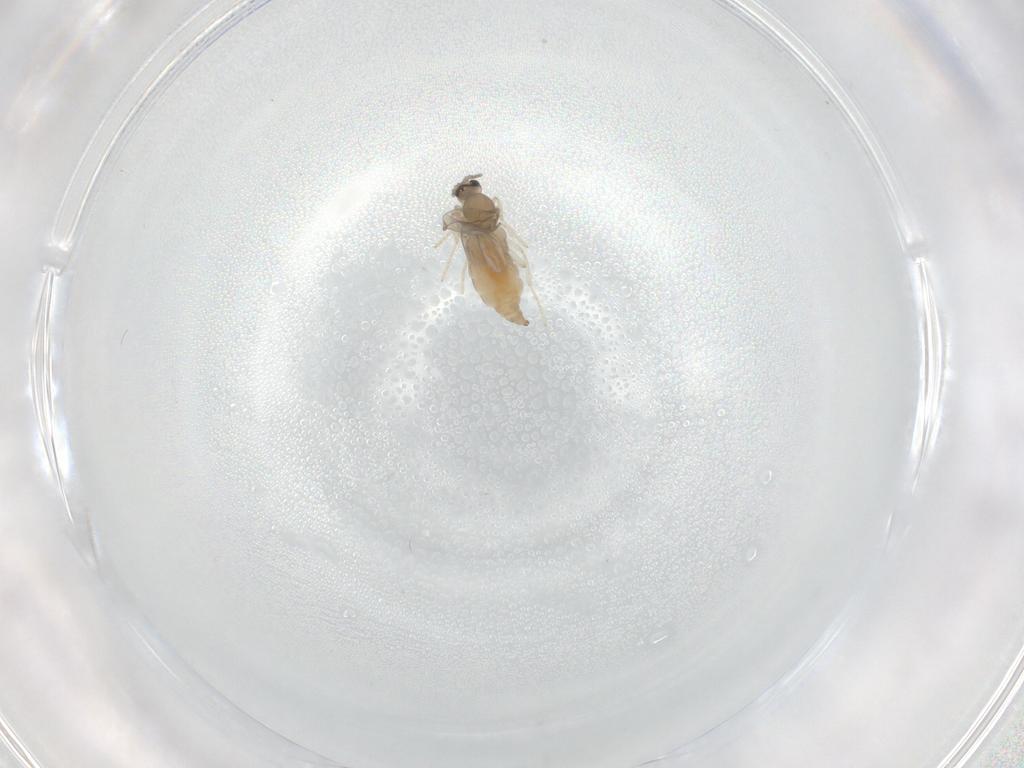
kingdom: Animalia
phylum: Arthropoda
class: Insecta
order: Diptera
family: Cecidomyiidae
